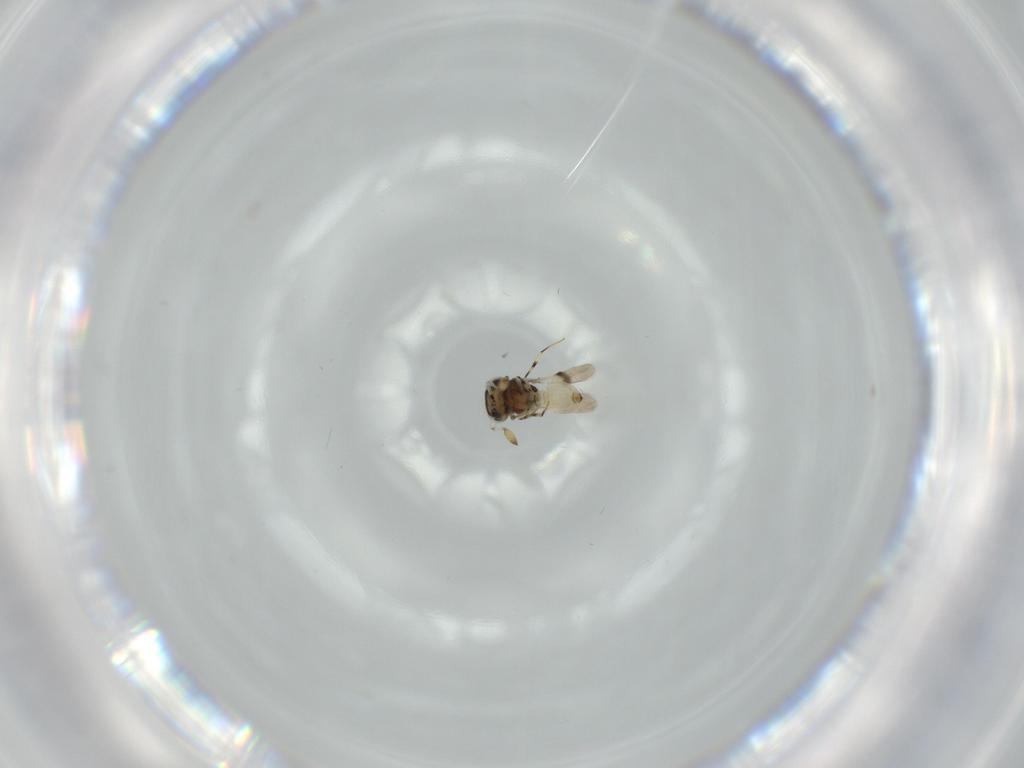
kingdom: Animalia
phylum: Arthropoda
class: Insecta
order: Hymenoptera
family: Scelionidae
